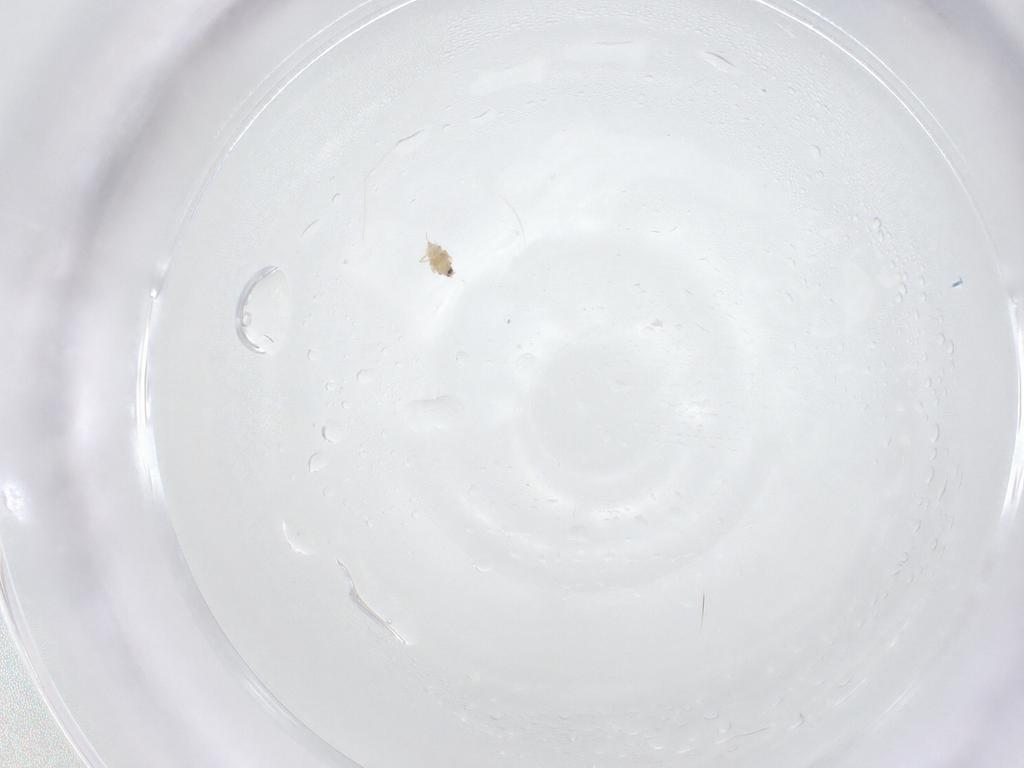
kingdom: Animalia
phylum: Arthropoda
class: Insecta
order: Hemiptera
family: Diaspididae
